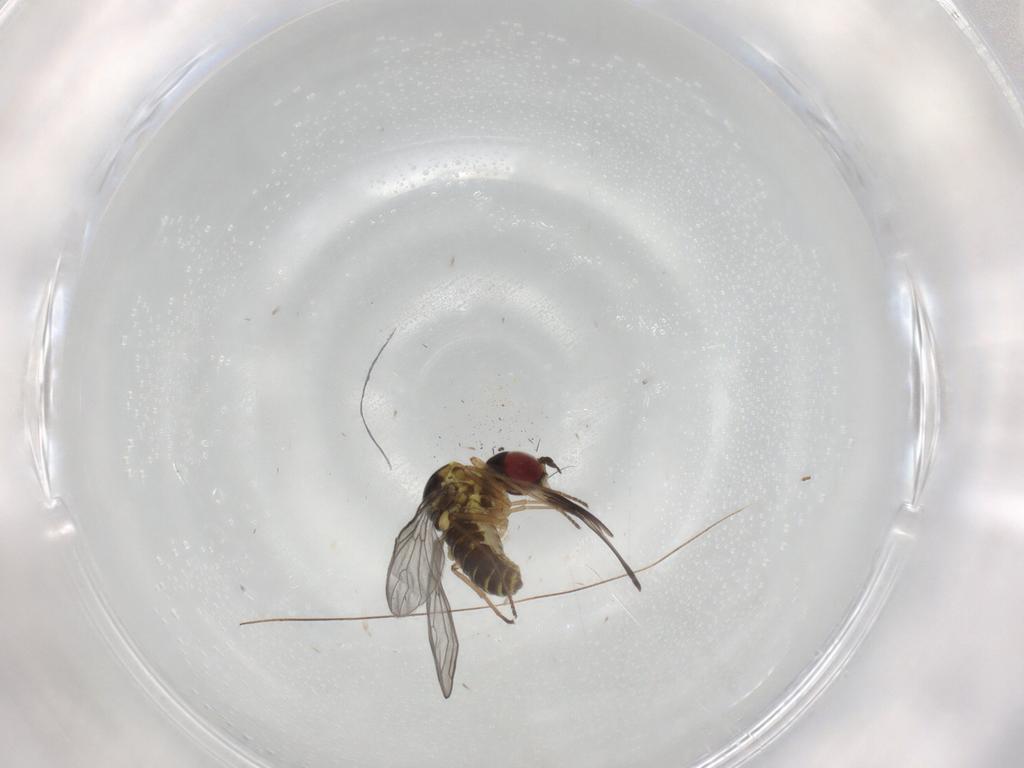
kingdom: Animalia
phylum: Arthropoda
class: Insecta
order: Diptera
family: Bombyliidae
